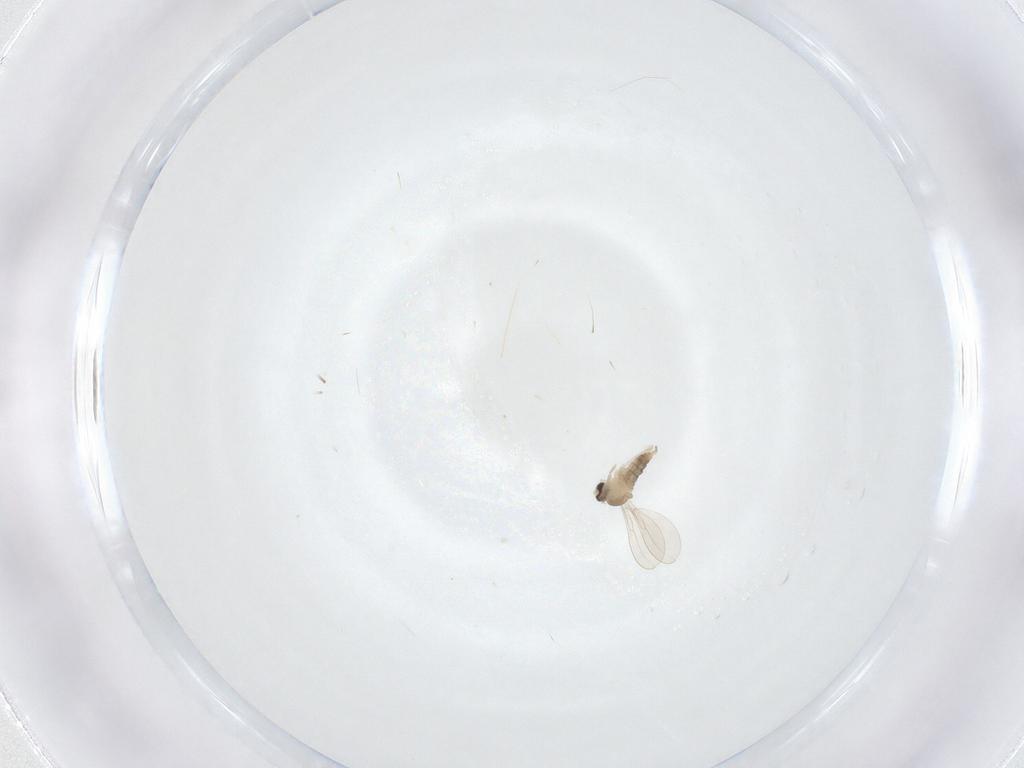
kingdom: Animalia
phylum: Arthropoda
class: Insecta
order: Diptera
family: Cecidomyiidae
